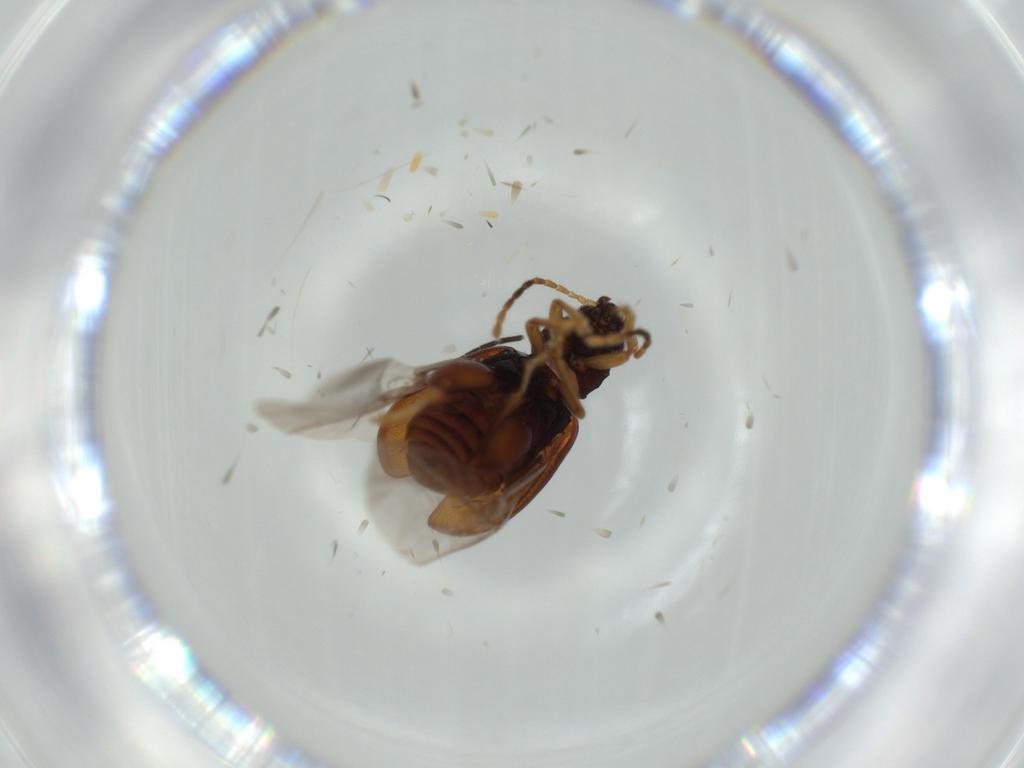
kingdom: Animalia
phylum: Arthropoda
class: Insecta
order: Coleoptera
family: Chrysomelidae
